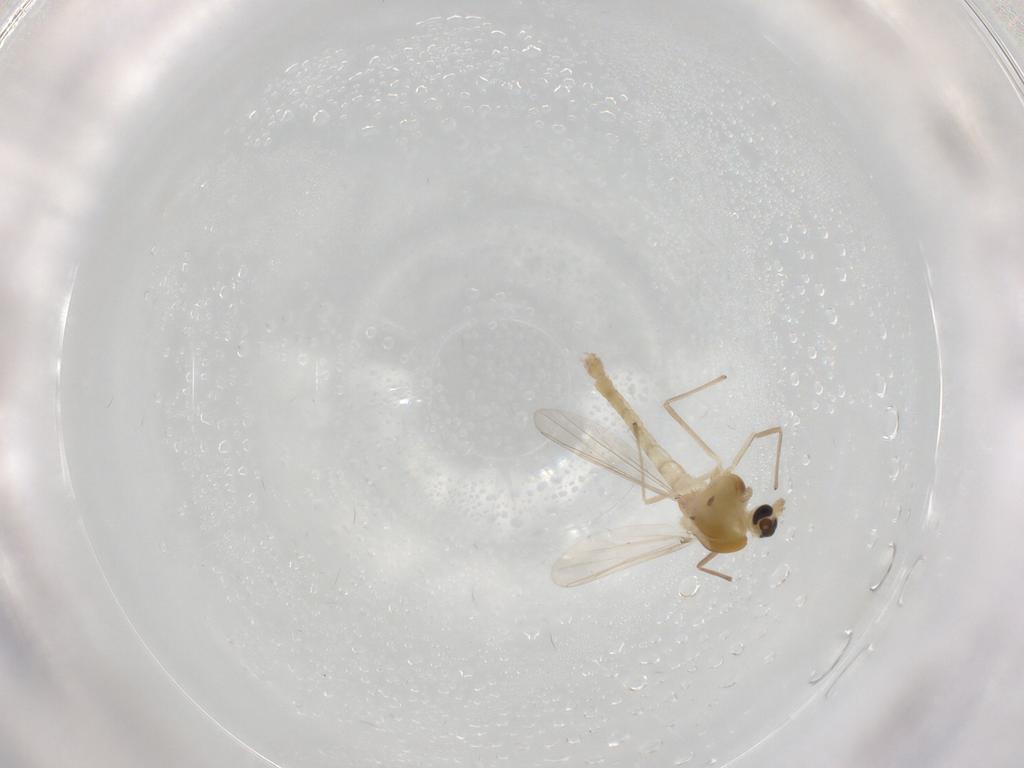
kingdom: Animalia
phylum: Arthropoda
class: Insecta
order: Diptera
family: Chironomidae
